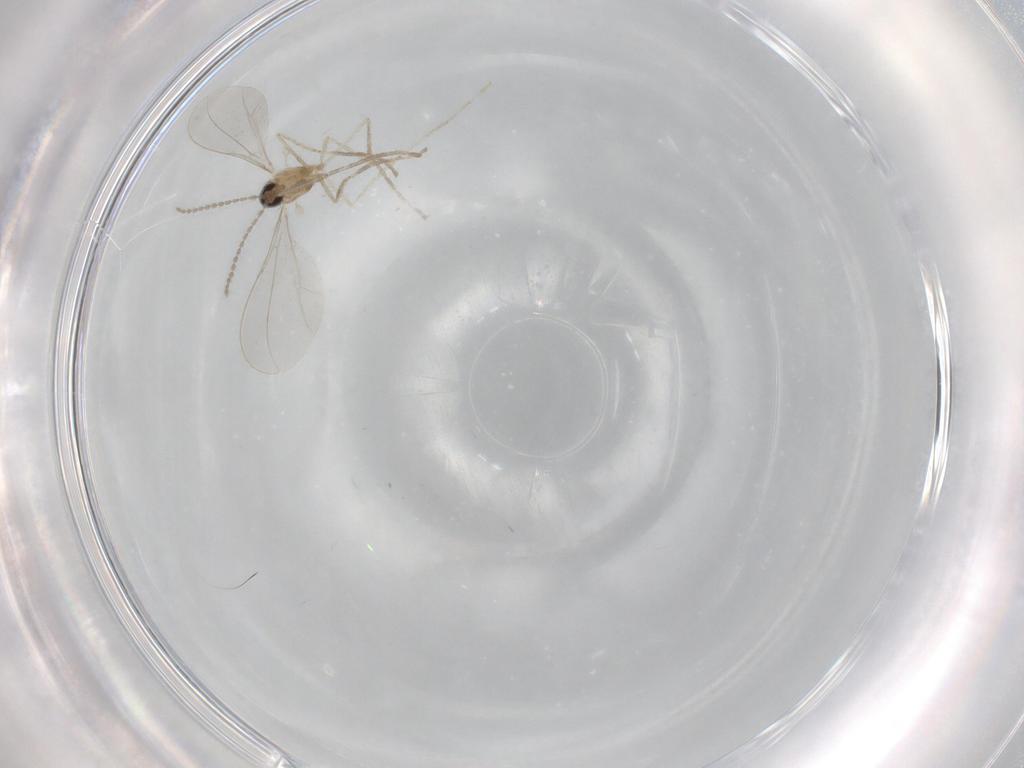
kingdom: Animalia
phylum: Arthropoda
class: Insecta
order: Diptera
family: Cecidomyiidae
